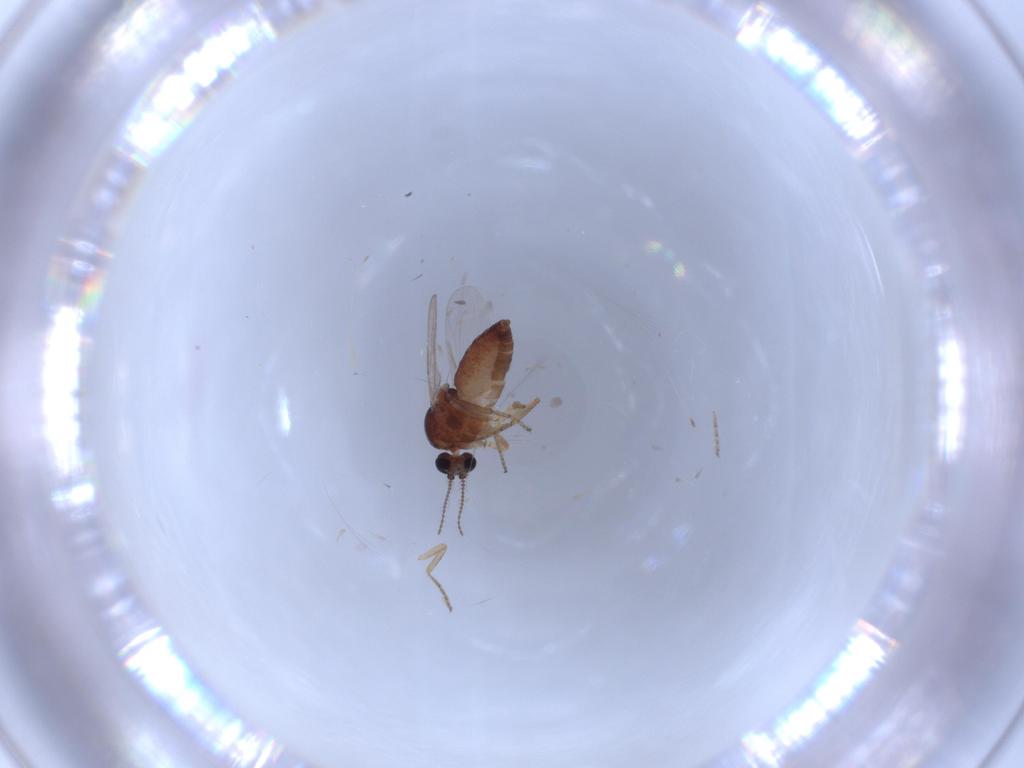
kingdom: Animalia
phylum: Arthropoda
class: Insecta
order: Diptera
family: Ceratopogonidae
